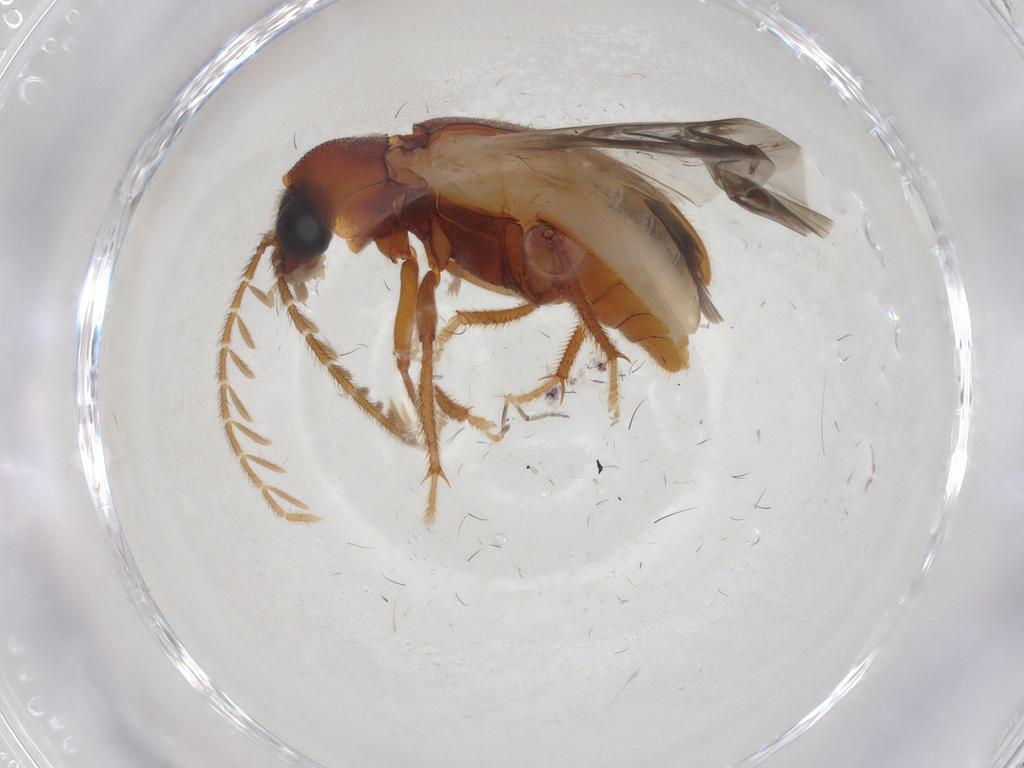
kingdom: Animalia
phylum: Arthropoda
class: Insecta
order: Coleoptera
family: Ptilodactylidae
